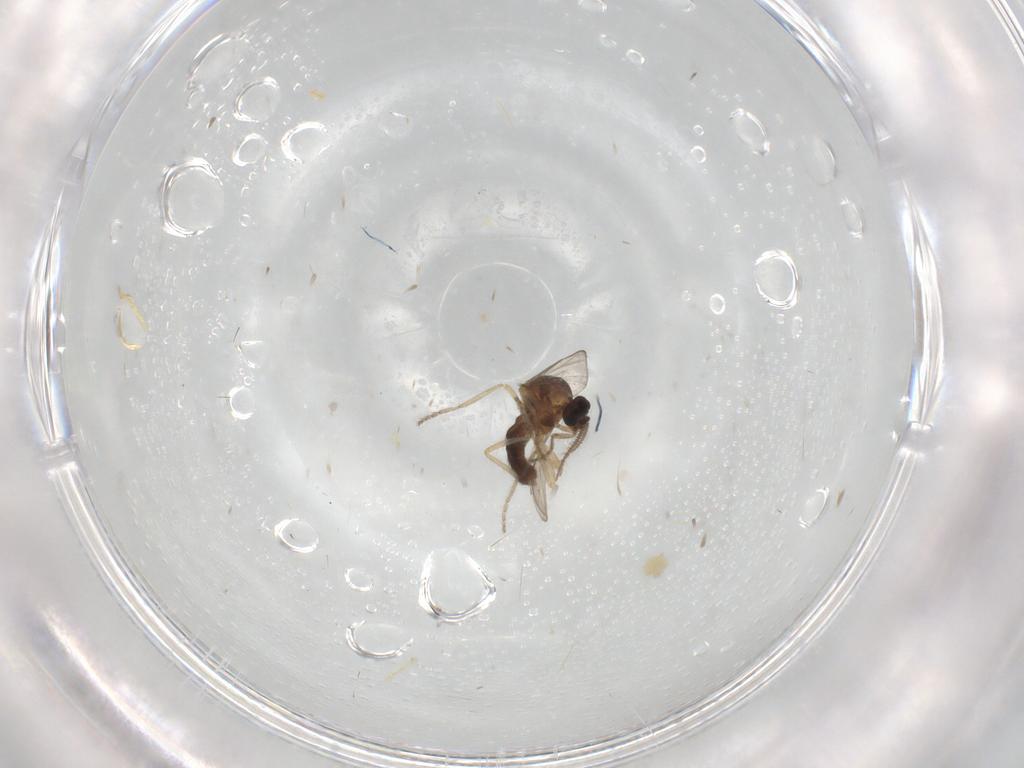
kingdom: Animalia
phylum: Arthropoda
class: Insecta
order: Diptera
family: Ceratopogonidae
